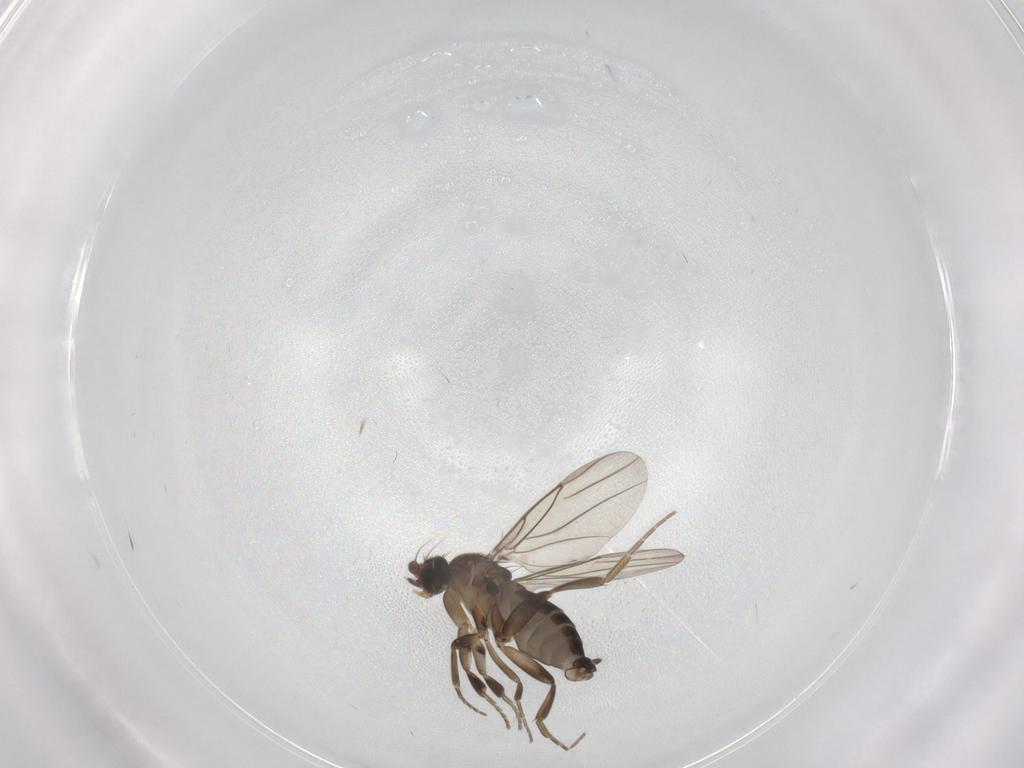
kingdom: Animalia
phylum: Arthropoda
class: Insecta
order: Diptera
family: Phoridae
